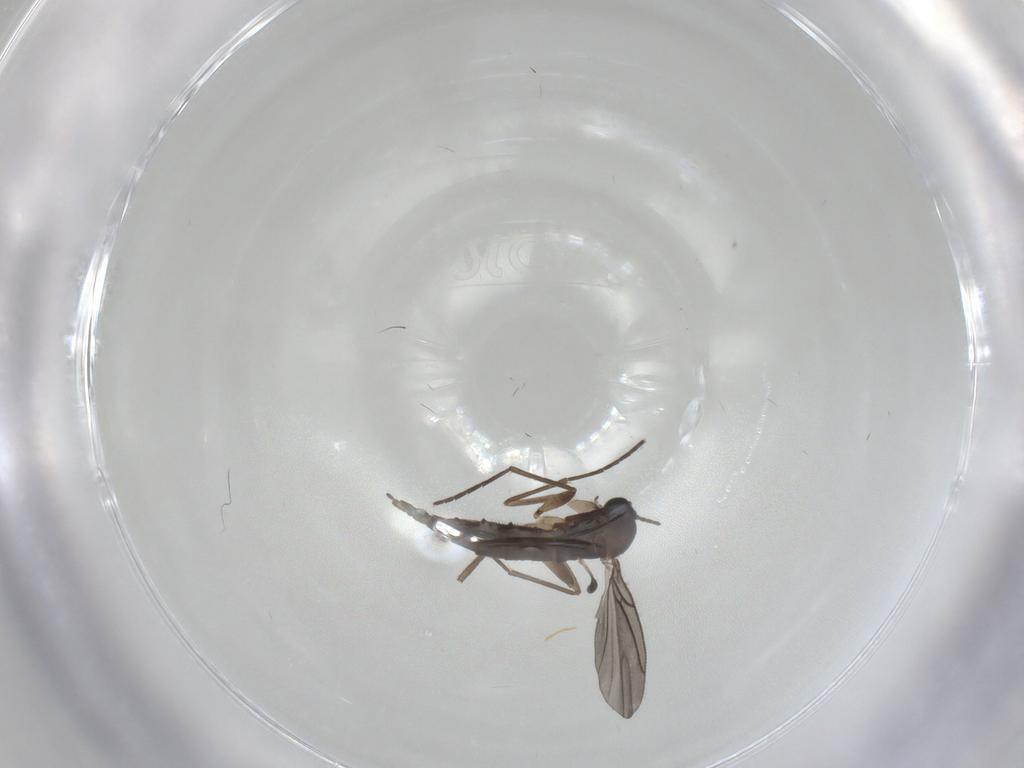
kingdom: Animalia
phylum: Arthropoda
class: Insecta
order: Diptera
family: Sciaridae
